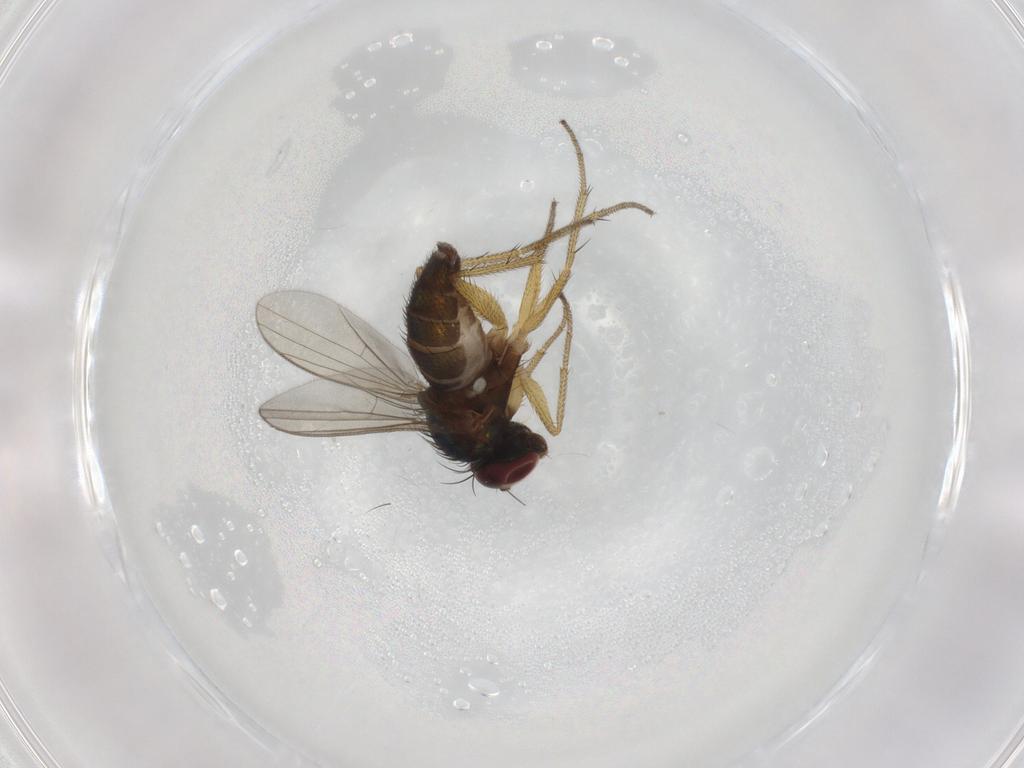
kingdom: Animalia
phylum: Arthropoda
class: Insecta
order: Diptera
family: Dolichopodidae
